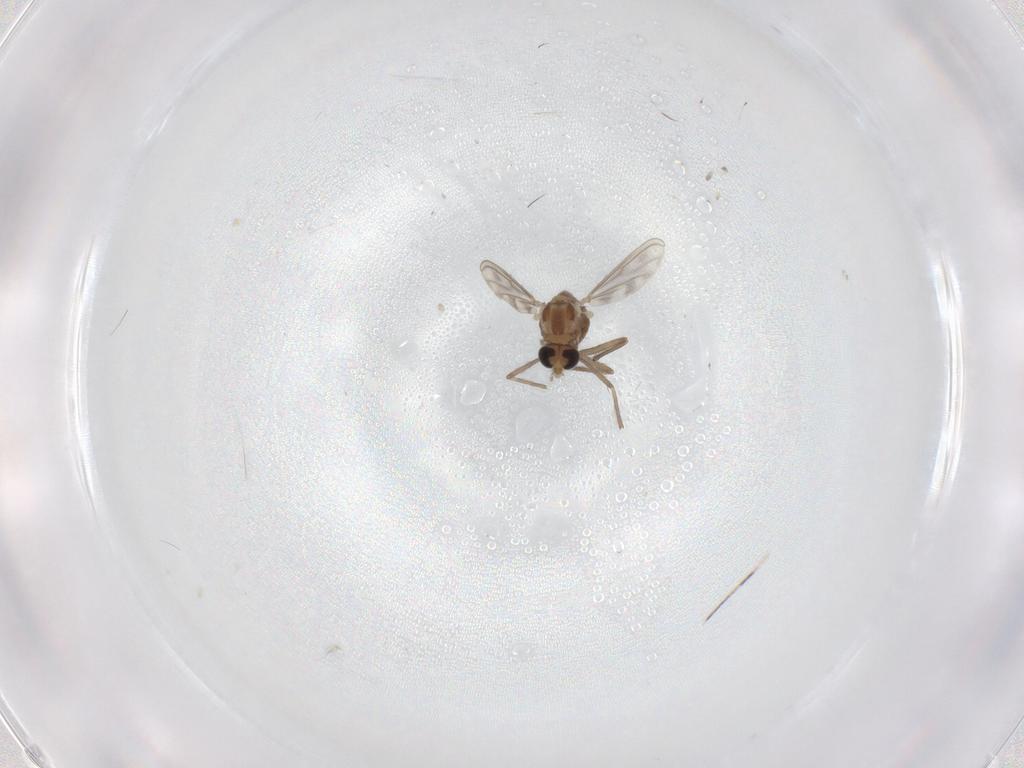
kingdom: Animalia
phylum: Arthropoda
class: Insecta
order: Diptera
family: Chironomidae
